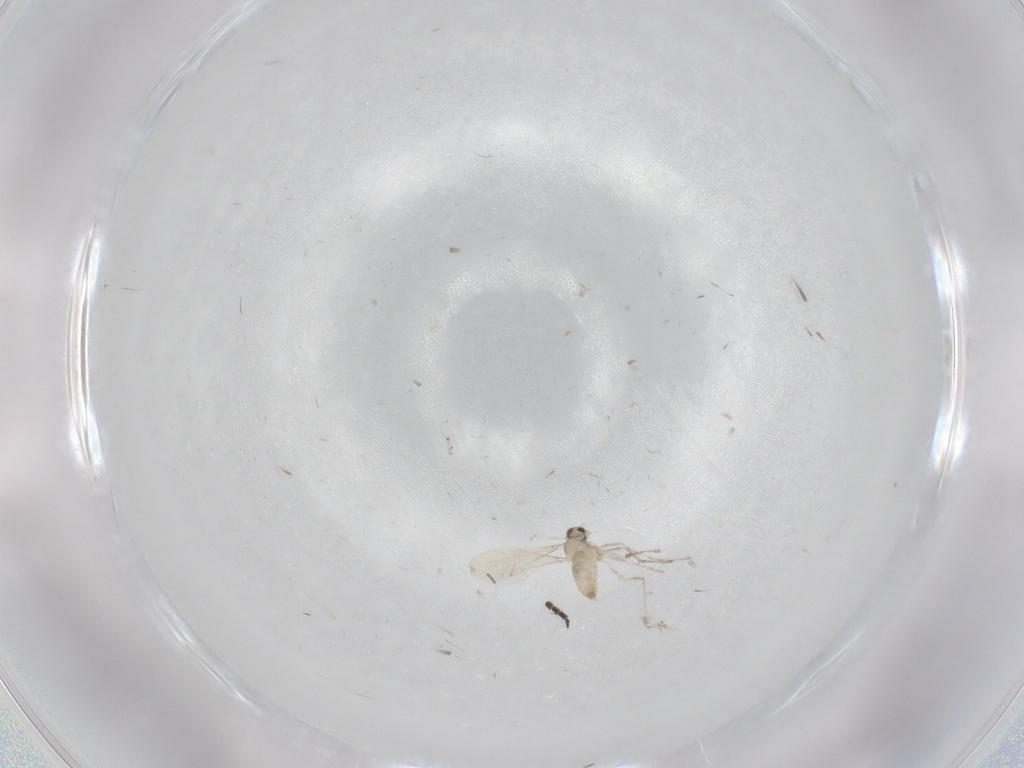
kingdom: Animalia
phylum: Arthropoda
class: Insecta
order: Diptera
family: Cecidomyiidae
